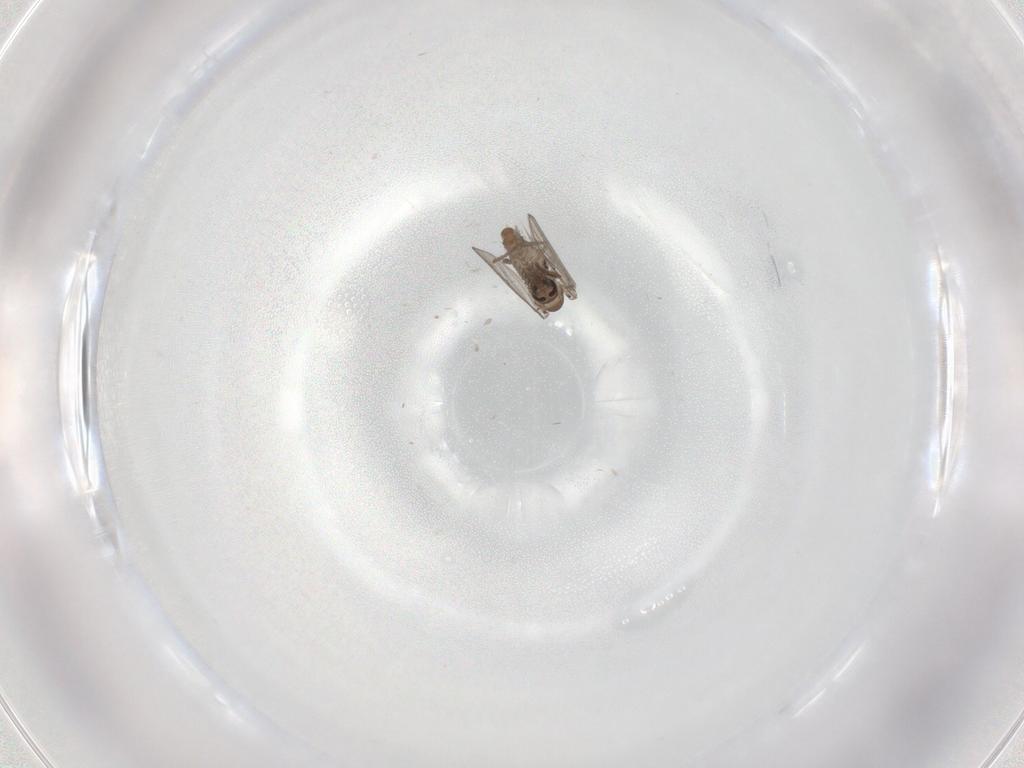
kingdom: Animalia
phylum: Arthropoda
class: Insecta
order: Diptera
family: Psychodidae
